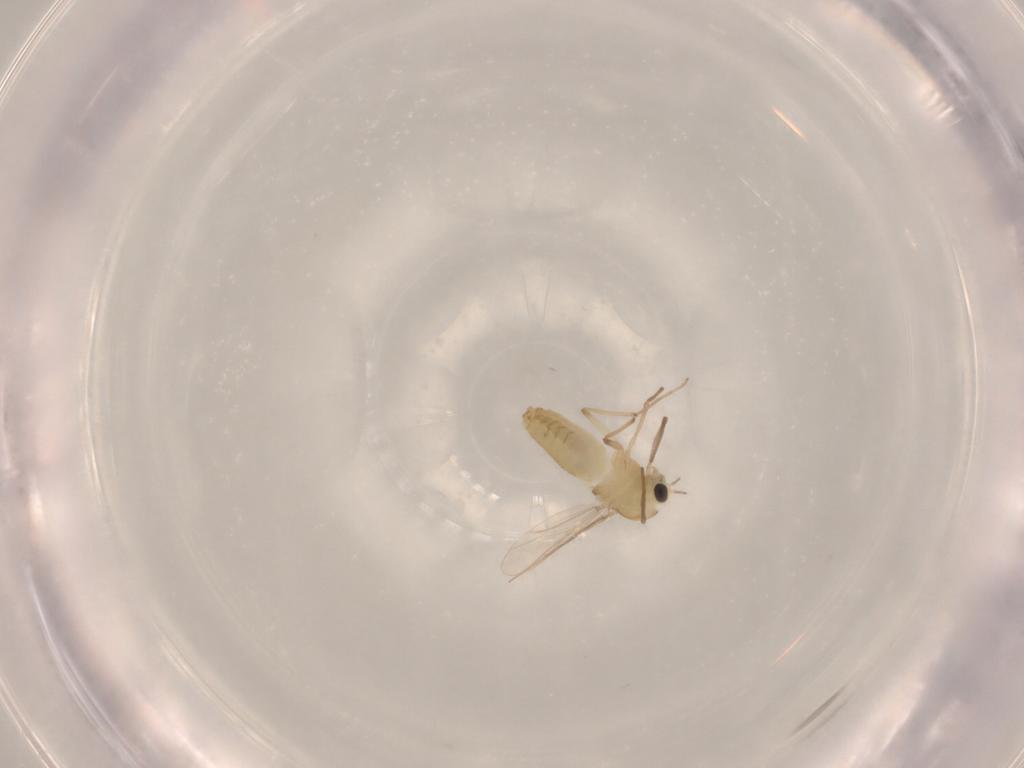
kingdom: Animalia
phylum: Arthropoda
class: Insecta
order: Diptera
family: Chironomidae
